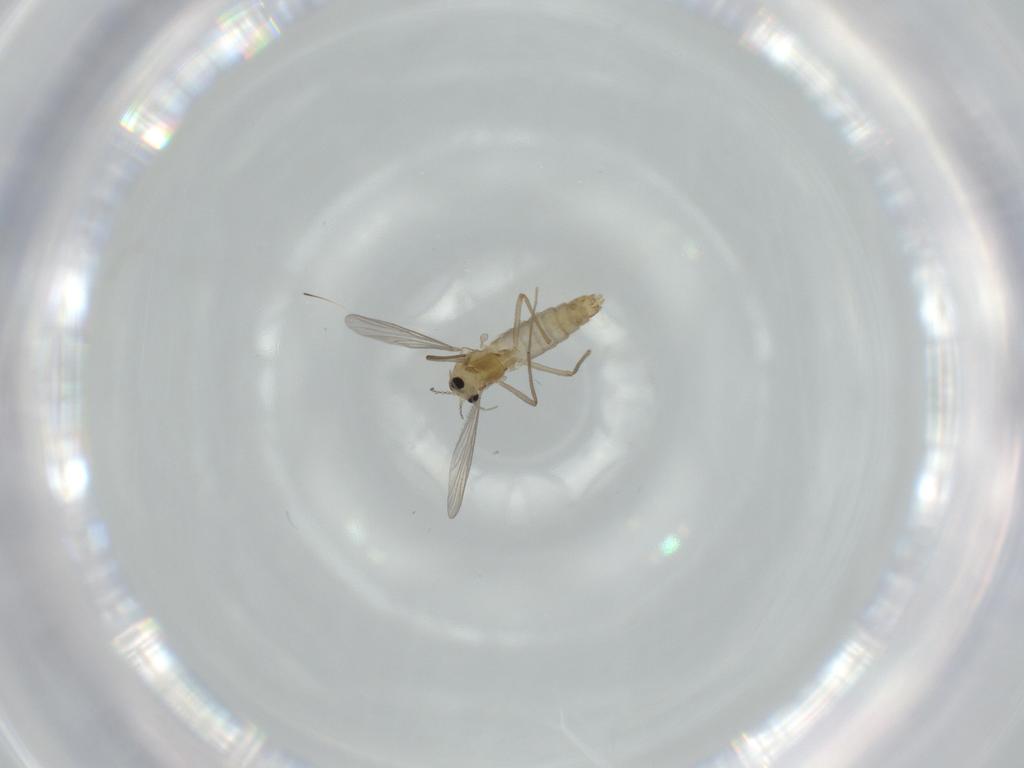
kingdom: Animalia
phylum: Arthropoda
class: Insecta
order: Diptera
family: Chironomidae
